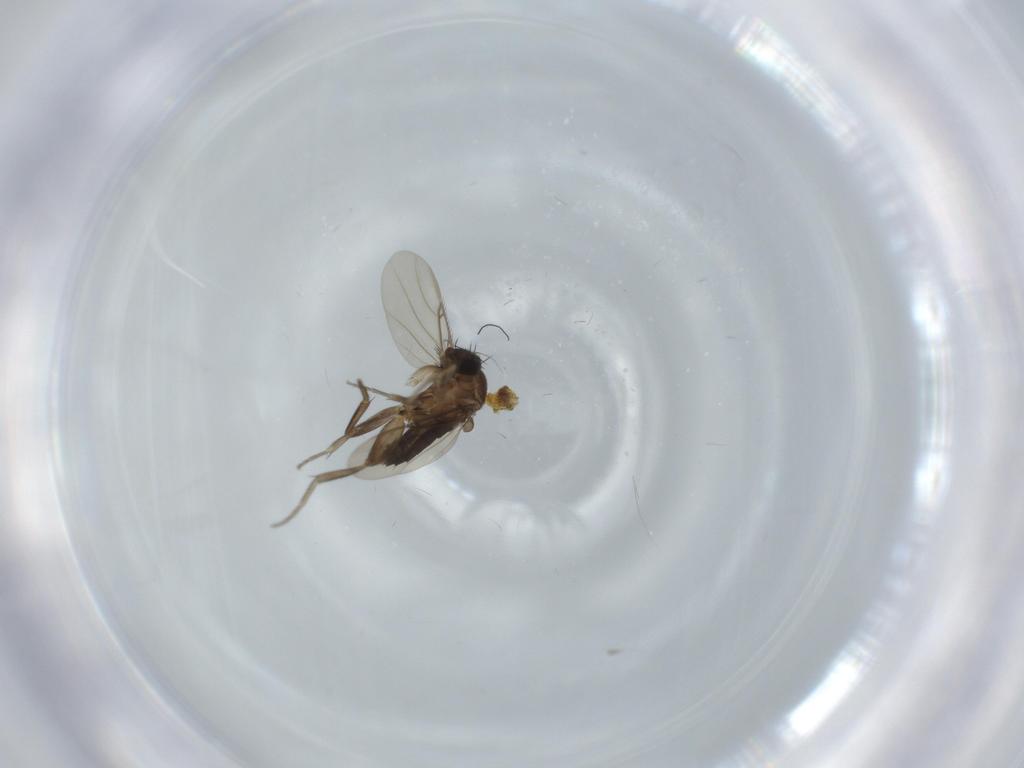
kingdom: Animalia
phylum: Arthropoda
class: Insecta
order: Diptera
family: Phoridae
